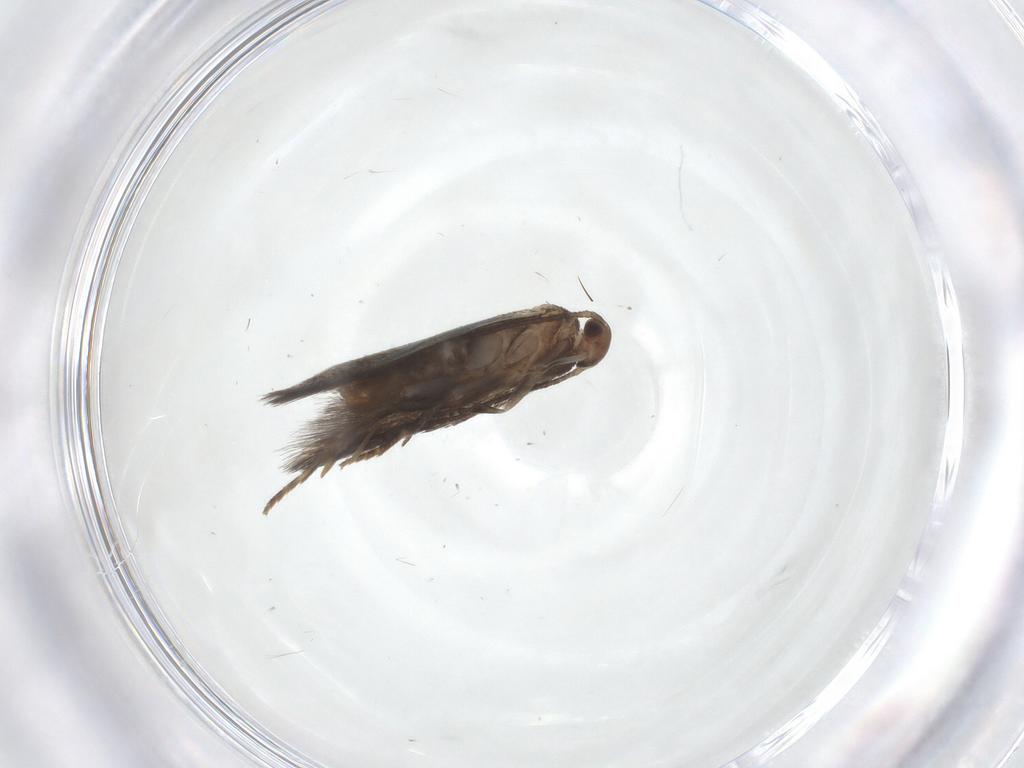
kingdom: Animalia
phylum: Arthropoda
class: Insecta
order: Lepidoptera
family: Elachistidae
